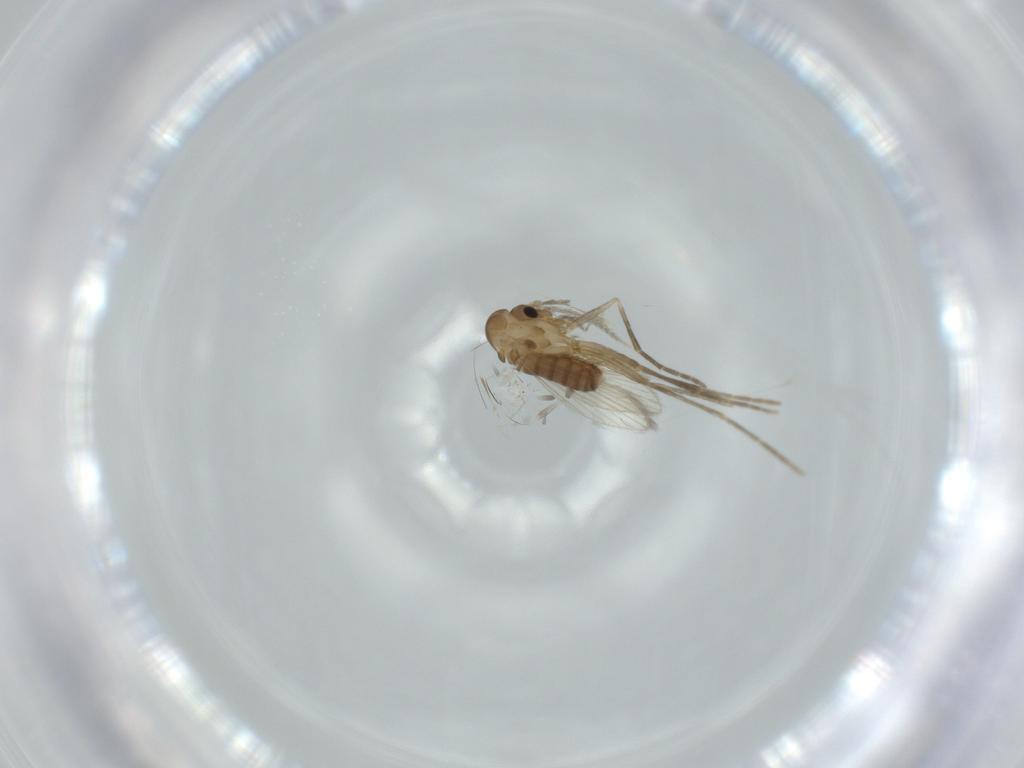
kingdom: Animalia
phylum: Arthropoda
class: Insecta
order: Diptera
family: Psychodidae
